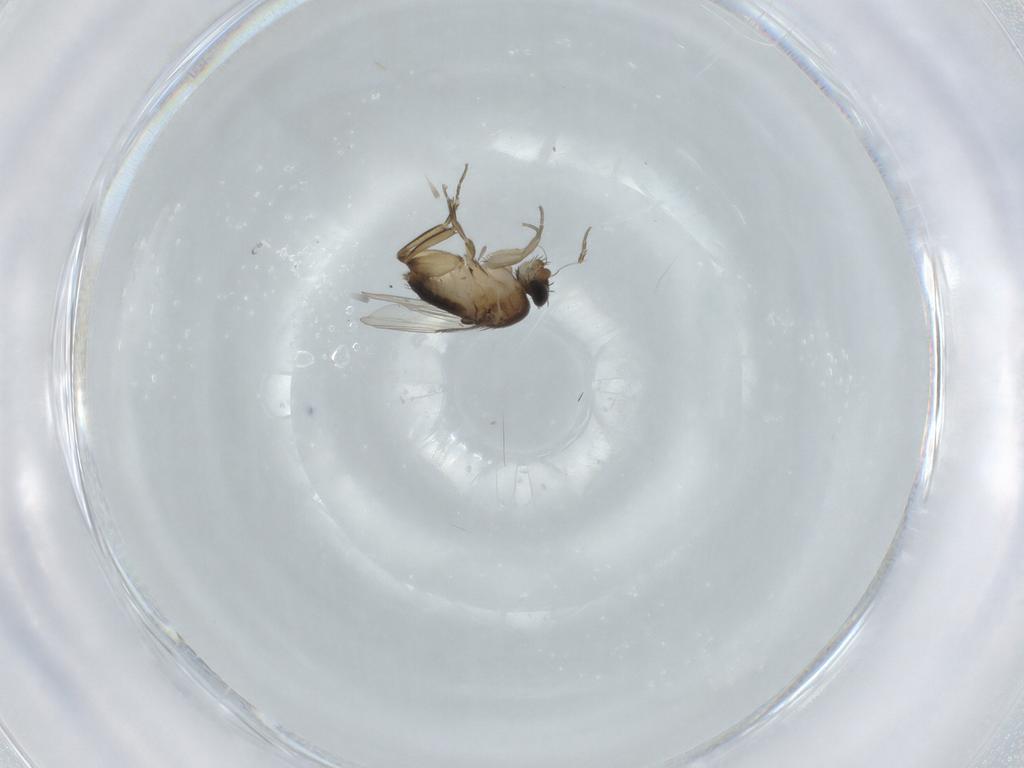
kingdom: Animalia
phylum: Arthropoda
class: Insecta
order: Diptera
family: Phoridae
